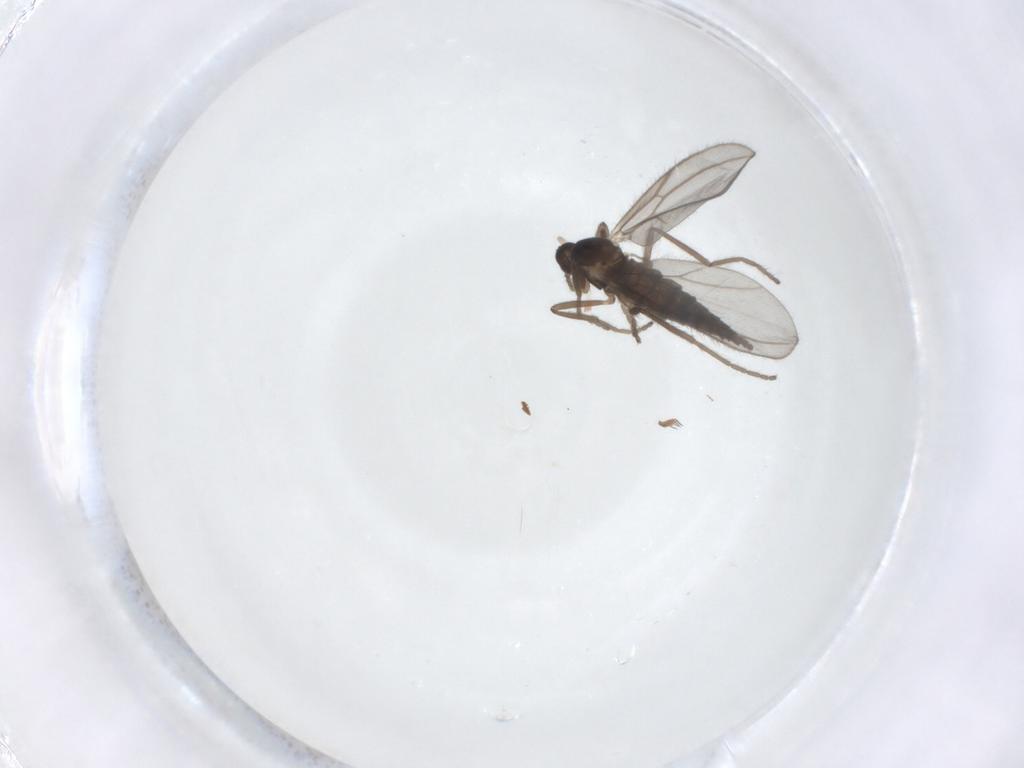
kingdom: Animalia
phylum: Arthropoda
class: Insecta
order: Diptera
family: Cecidomyiidae
